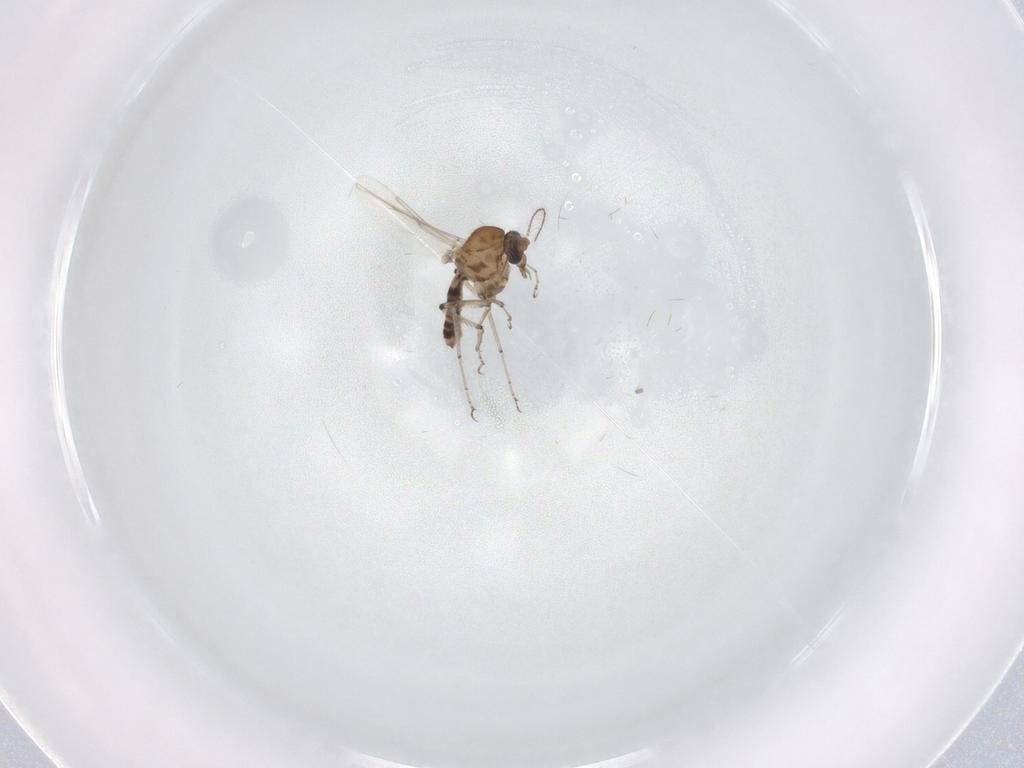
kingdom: Animalia
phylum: Arthropoda
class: Insecta
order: Diptera
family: Ceratopogonidae
